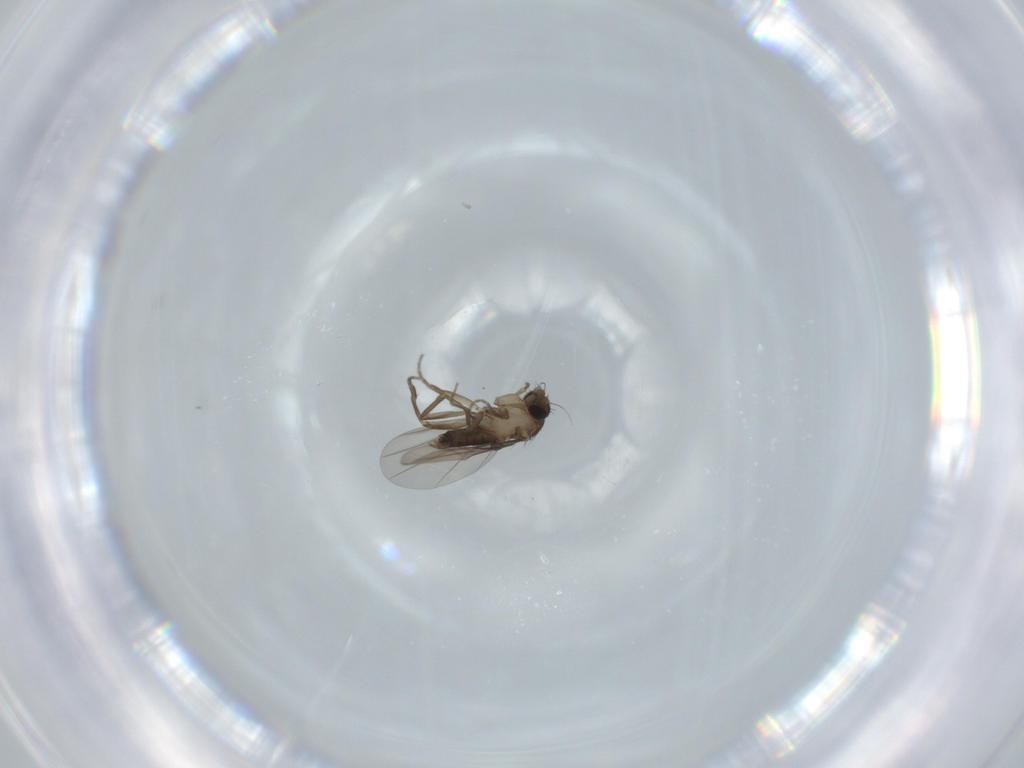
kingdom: Animalia
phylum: Arthropoda
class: Insecta
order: Diptera
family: Phoridae
